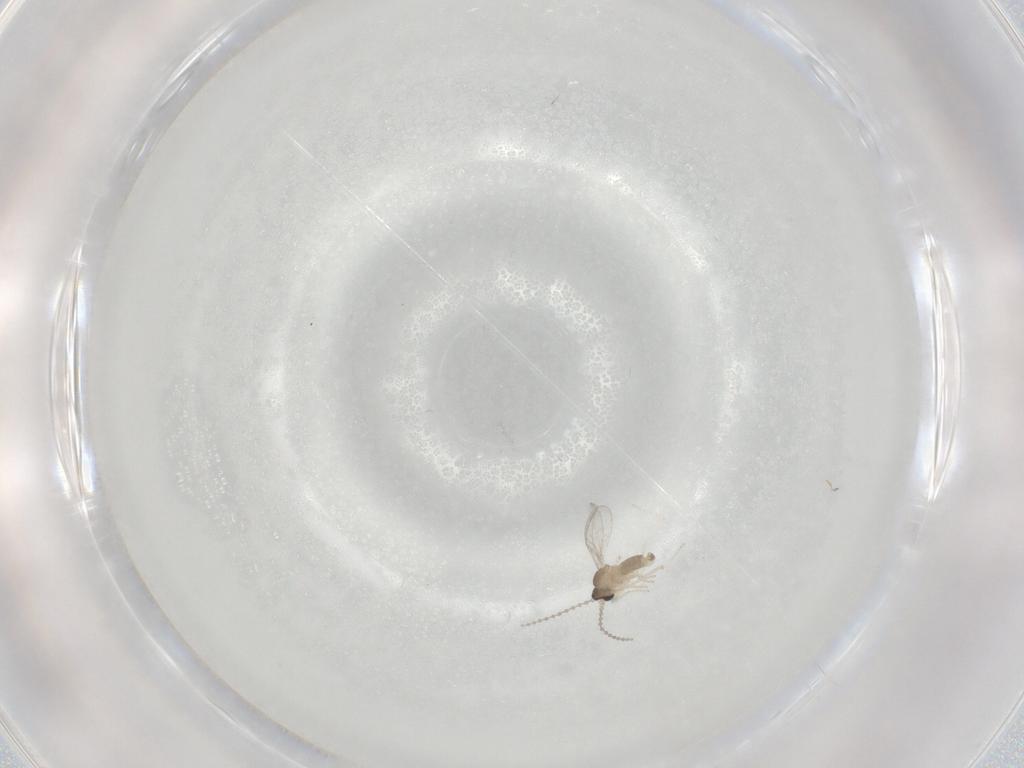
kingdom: Animalia
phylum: Arthropoda
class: Insecta
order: Diptera
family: Cecidomyiidae
